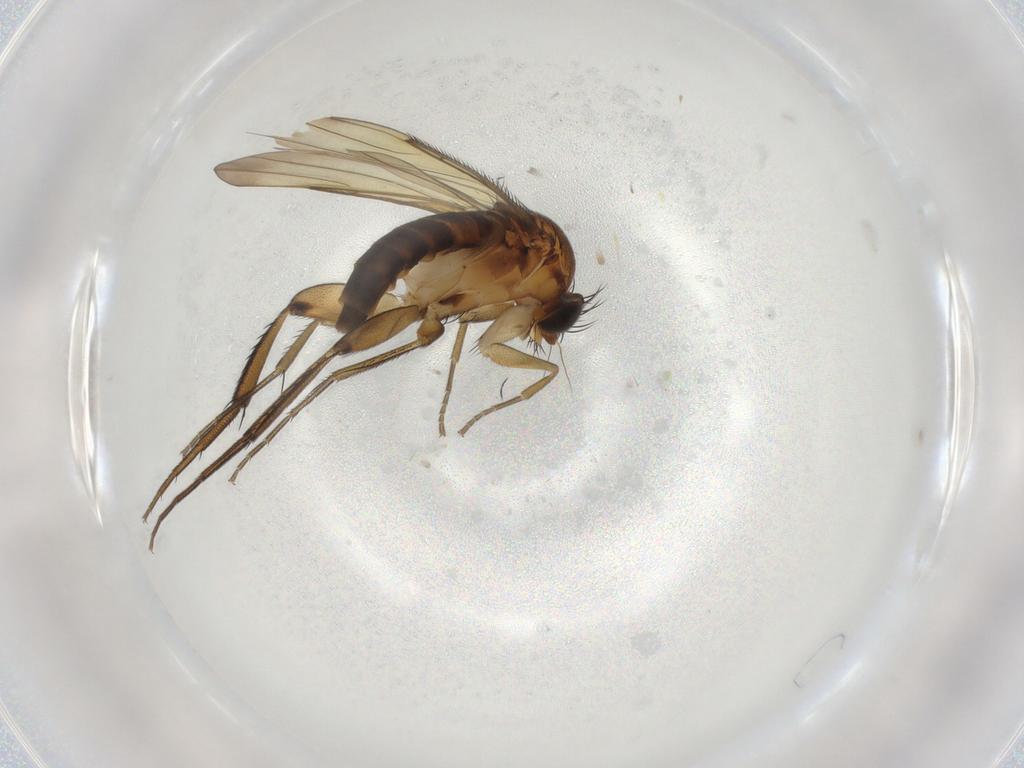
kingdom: Animalia
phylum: Arthropoda
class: Insecta
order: Diptera
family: Phoridae
